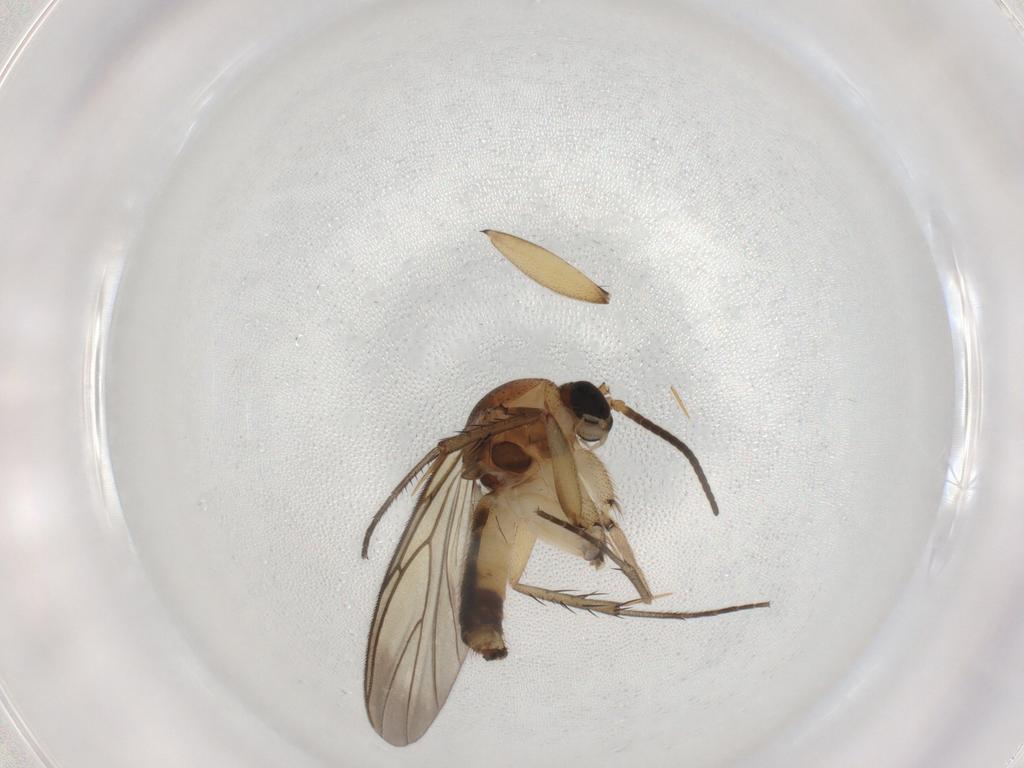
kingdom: Animalia
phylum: Arthropoda
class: Insecta
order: Diptera
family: Mycetophilidae
